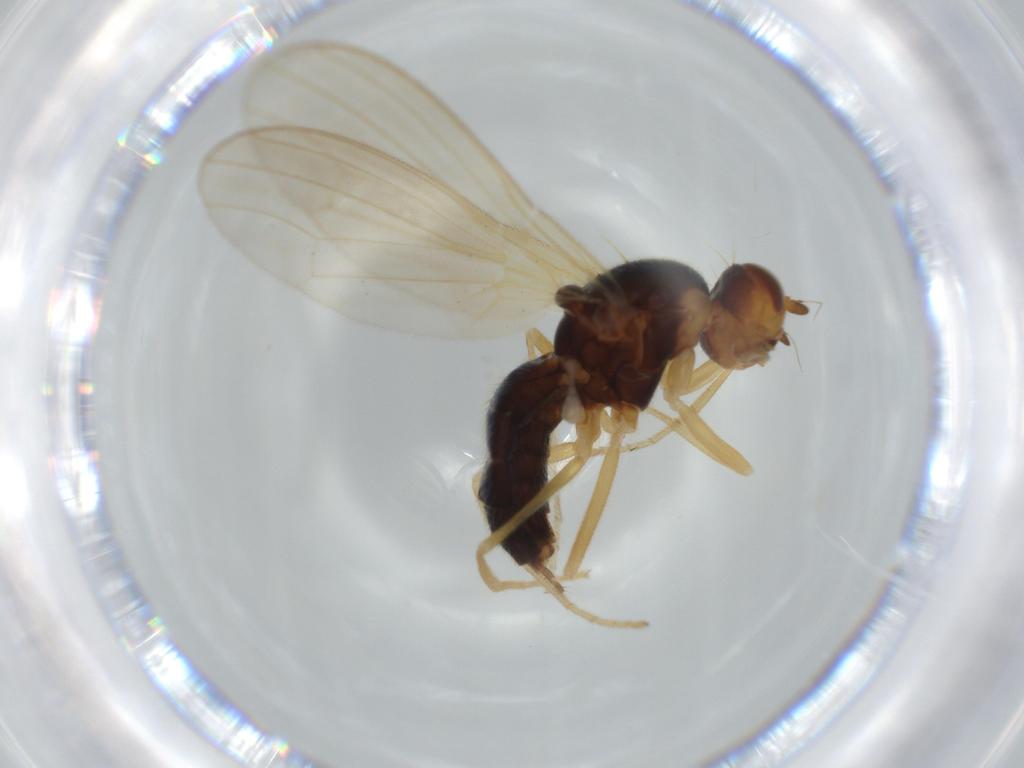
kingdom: Animalia
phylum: Arthropoda
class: Insecta
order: Diptera
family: Psilidae
